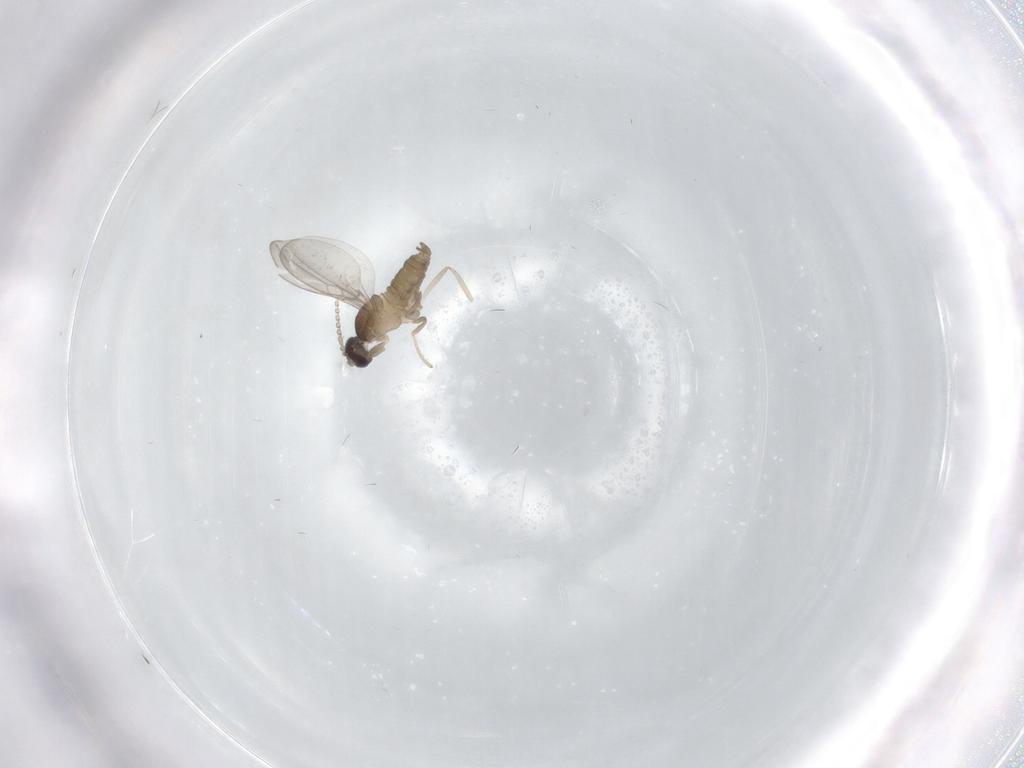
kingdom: Animalia
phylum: Arthropoda
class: Insecta
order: Diptera
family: Cecidomyiidae
